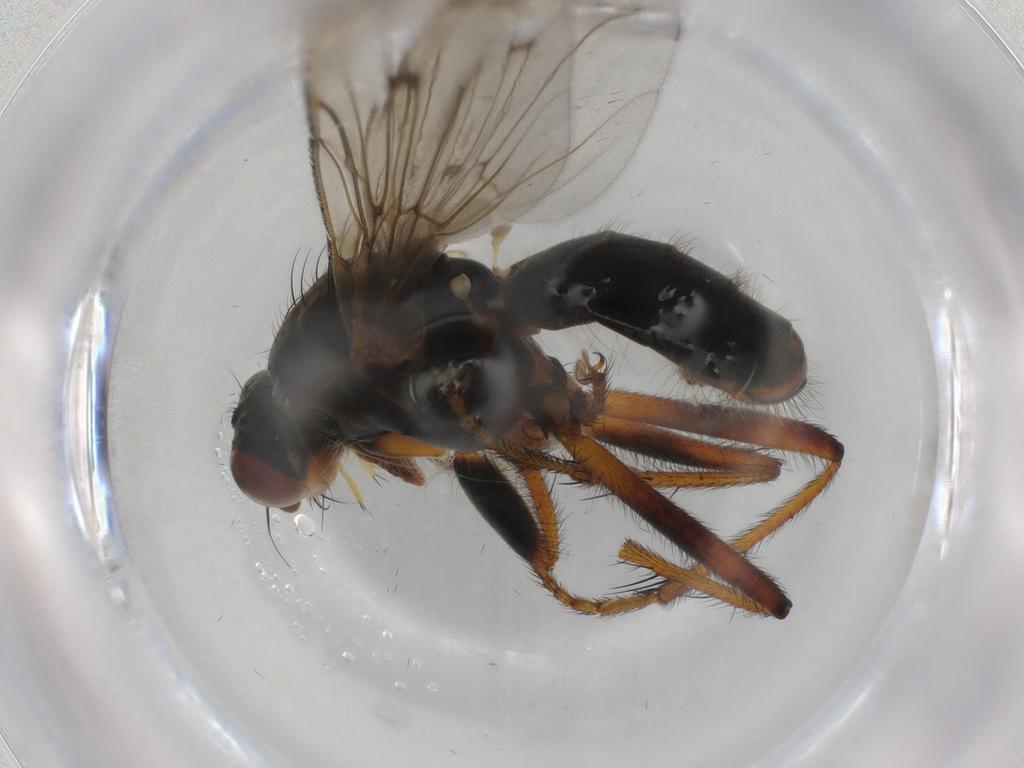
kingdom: Animalia
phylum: Arthropoda
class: Insecta
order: Diptera
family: Scathophagidae
